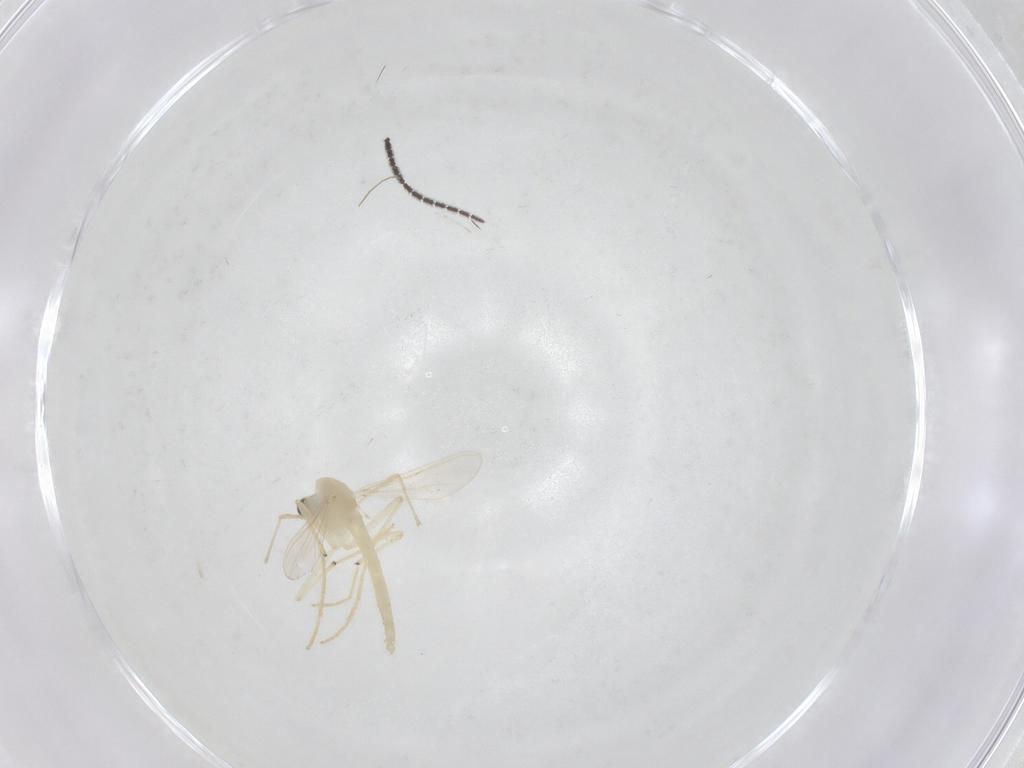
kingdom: Animalia
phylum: Arthropoda
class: Insecta
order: Diptera
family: Sciaridae
